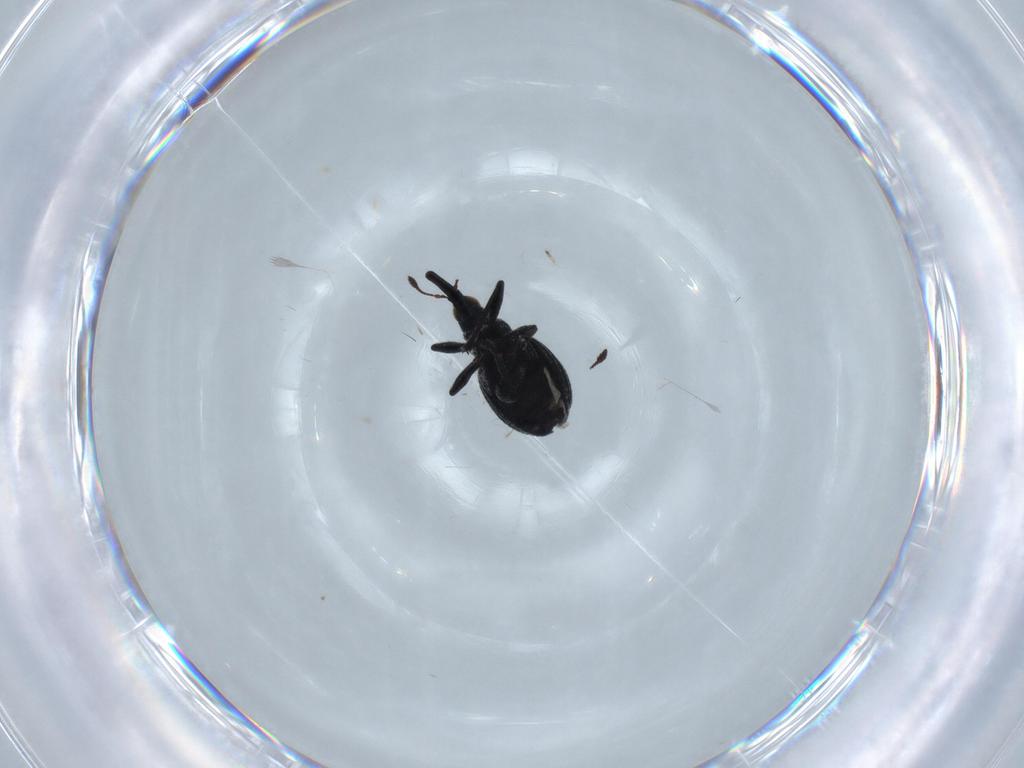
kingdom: Animalia
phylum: Arthropoda
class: Insecta
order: Coleoptera
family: Brentidae
